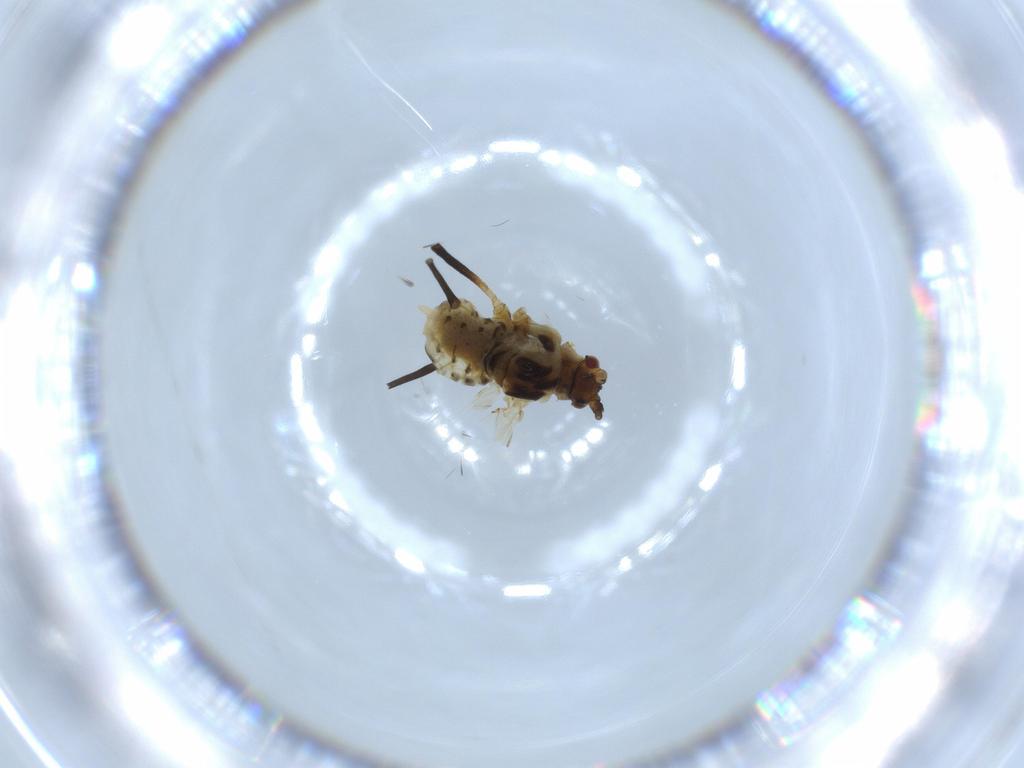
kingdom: Animalia
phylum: Arthropoda
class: Insecta
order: Hemiptera
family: Aphididae
